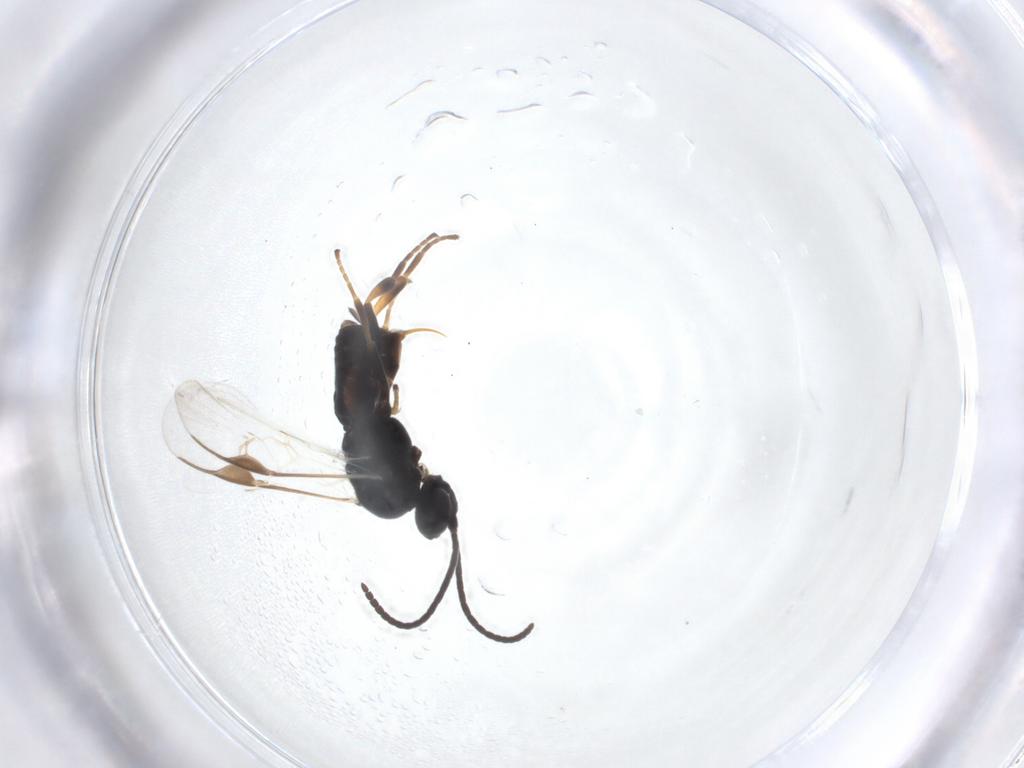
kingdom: Animalia
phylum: Arthropoda
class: Insecta
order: Hymenoptera
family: Braconidae
